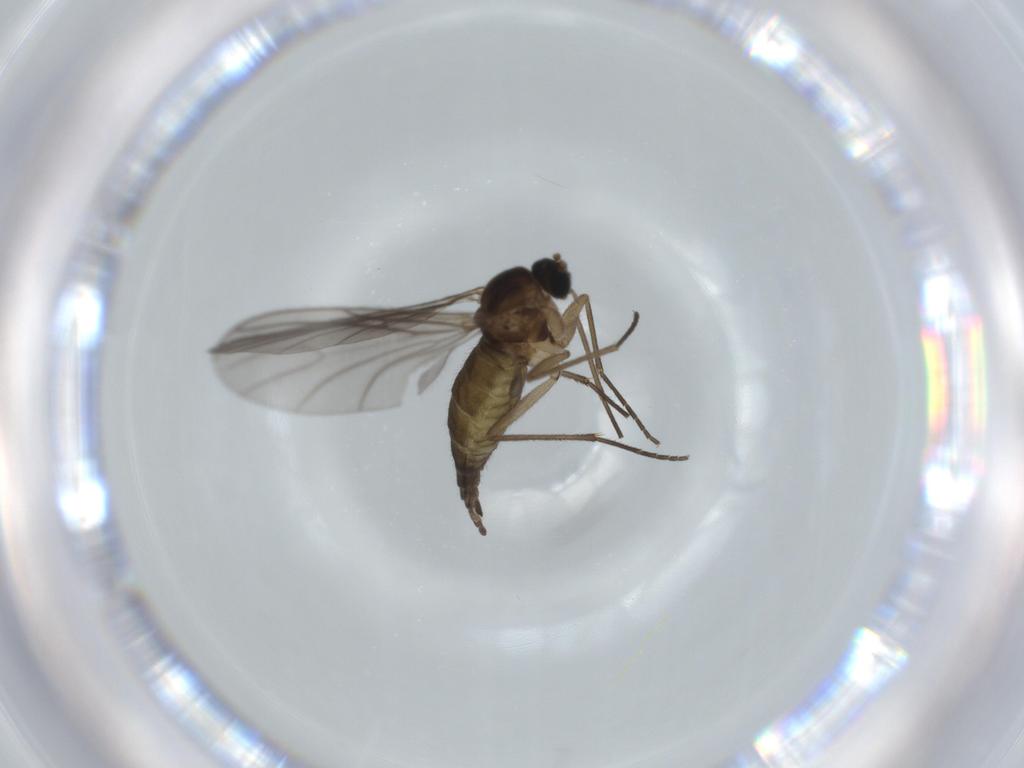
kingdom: Animalia
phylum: Arthropoda
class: Insecta
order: Diptera
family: Sciaridae
